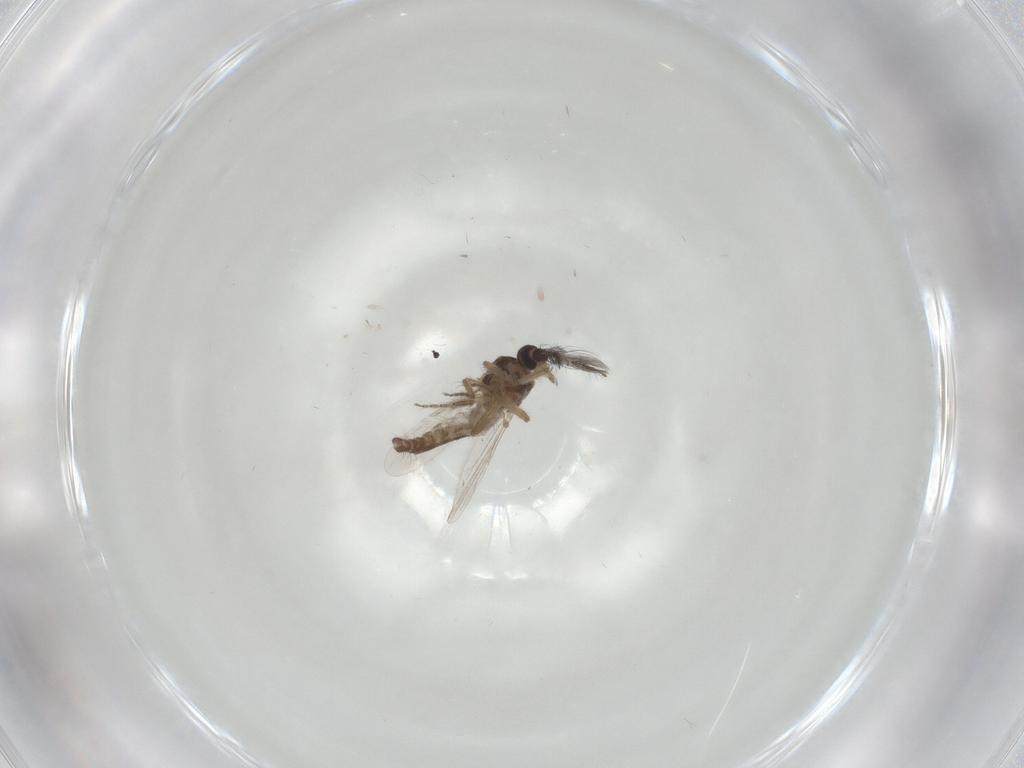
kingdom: Animalia
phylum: Arthropoda
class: Insecta
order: Diptera
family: Ceratopogonidae
